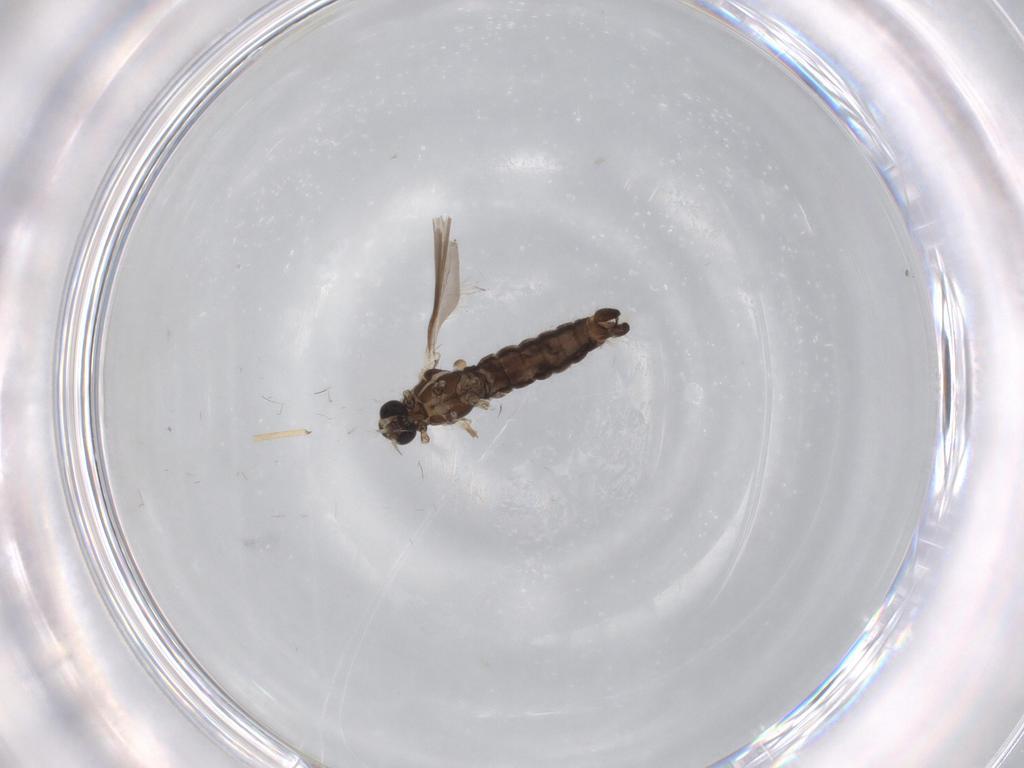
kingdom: Animalia
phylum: Arthropoda
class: Insecta
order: Diptera
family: Limoniidae
